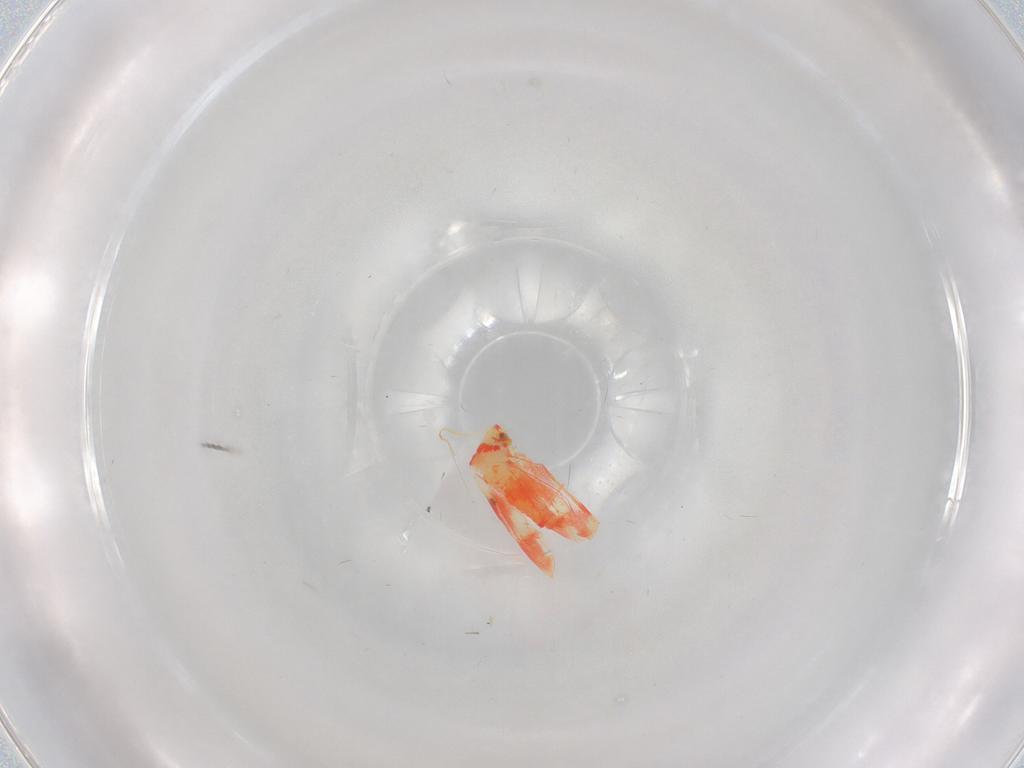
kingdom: Animalia
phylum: Arthropoda
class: Insecta
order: Hemiptera
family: Aleyrodidae
